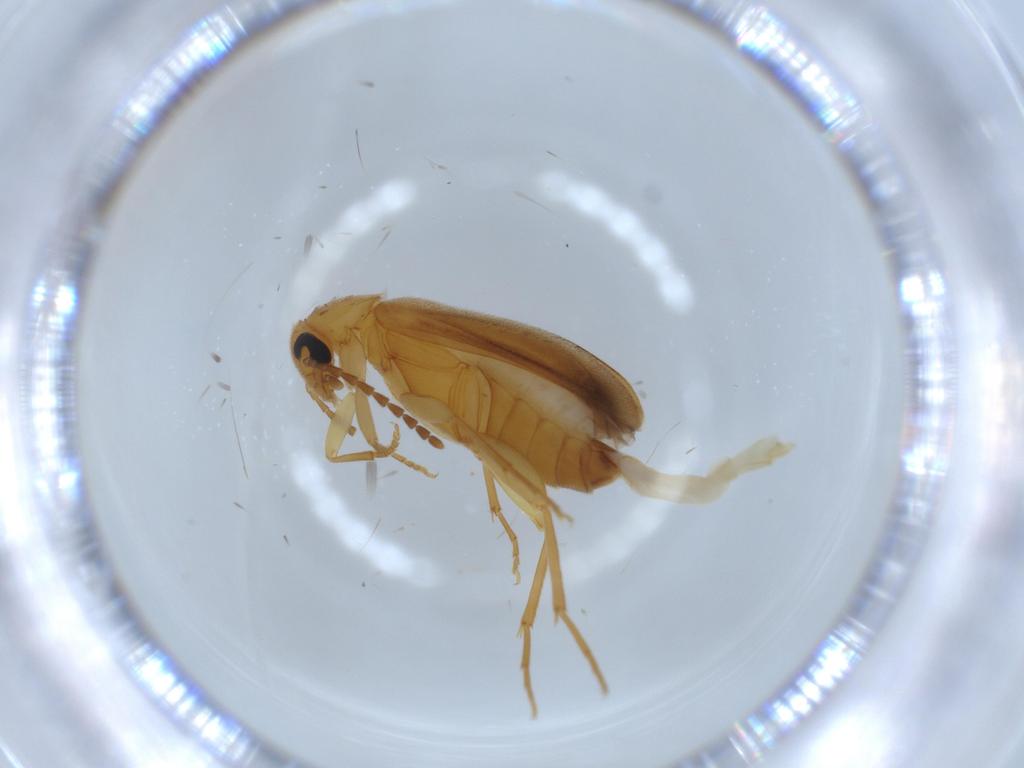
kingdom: Animalia
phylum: Arthropoda
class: Insecta
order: Coleoptera
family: Scraptiidae
